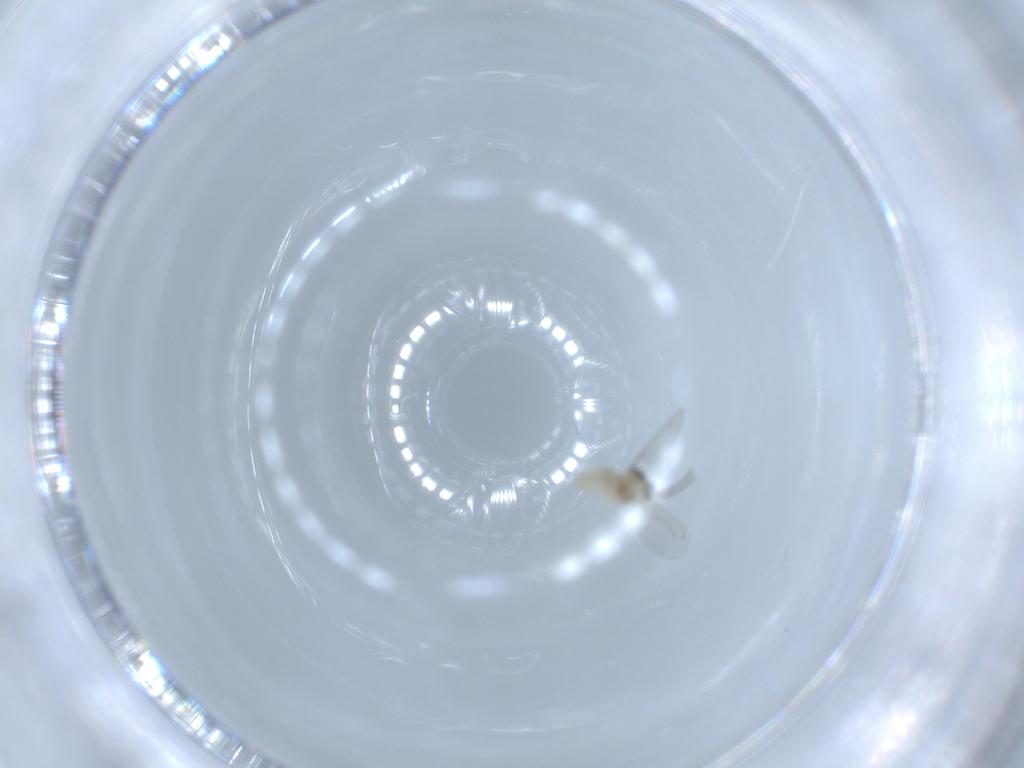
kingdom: Animalia
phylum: Arthropoda
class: Insecta
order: Diptera
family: Cecidomyiidae
